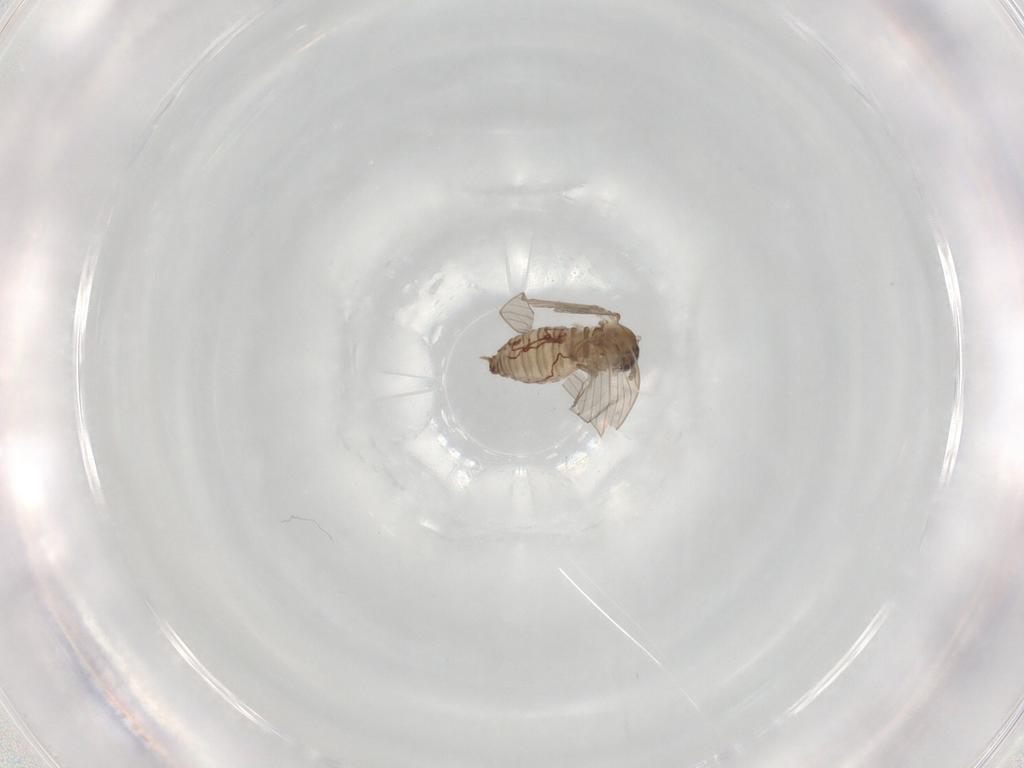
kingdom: Animalia
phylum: Arthropoda
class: Insecta
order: Diptera
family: Psychodidae
